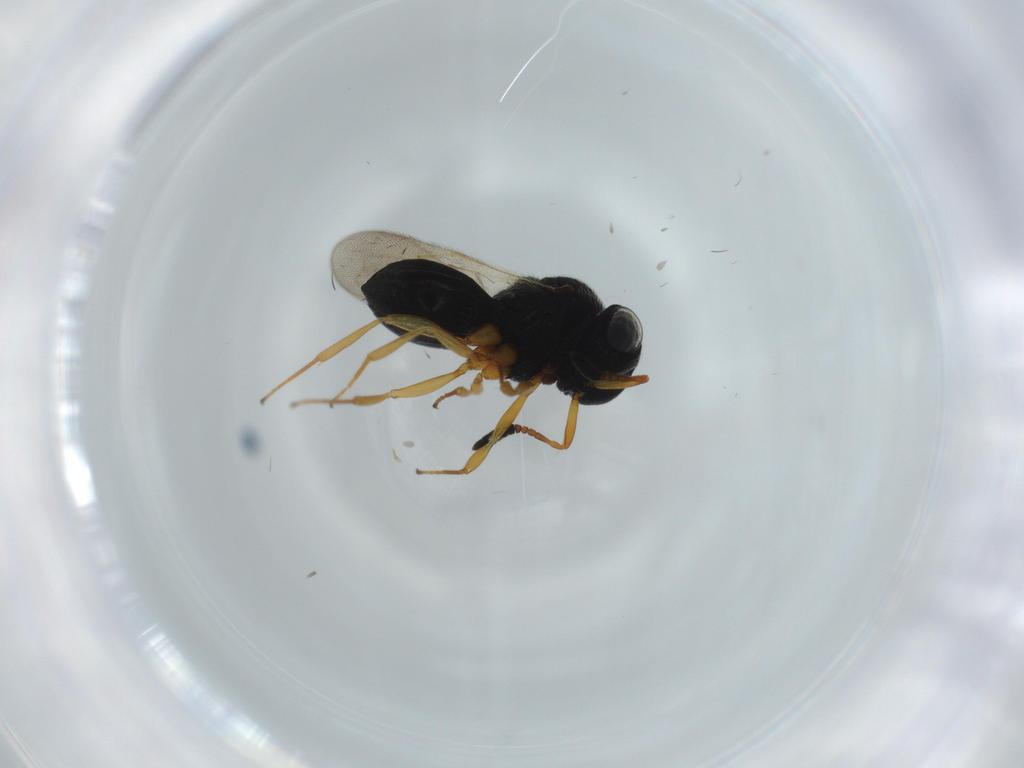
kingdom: Animalia
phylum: Arthropoda
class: Insecta
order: Hymenoptera
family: Scelionidae
